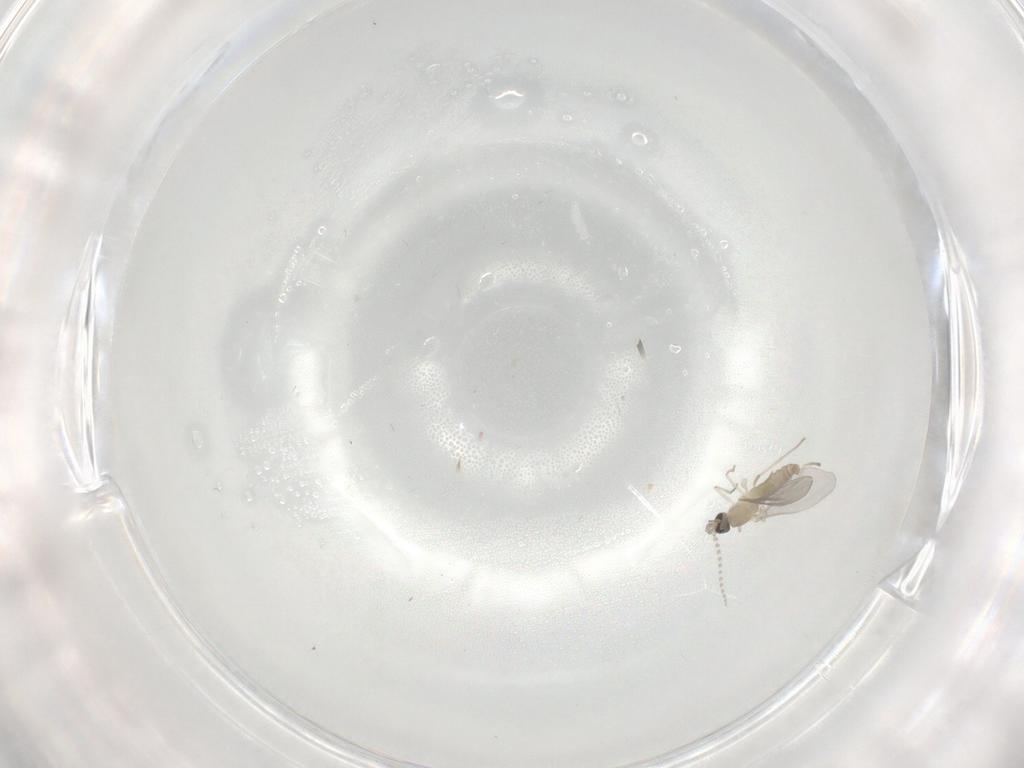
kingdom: Animalia
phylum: Arthropoda
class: Insecta
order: Diptera
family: Cecidomyiidae
